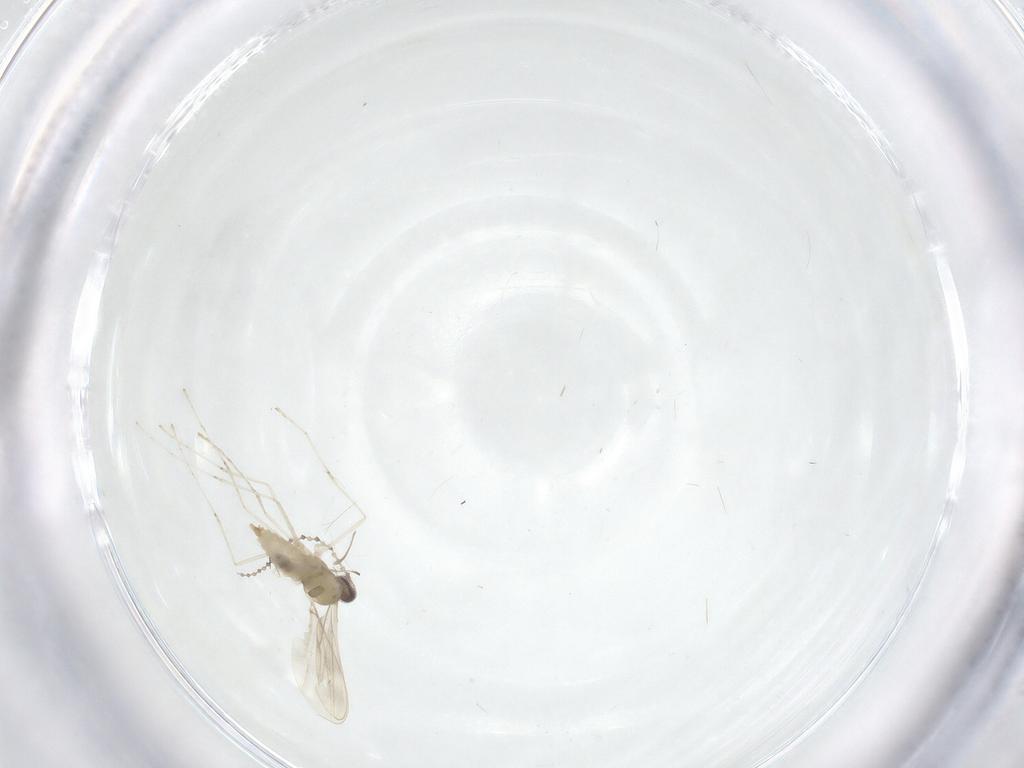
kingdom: Animalia
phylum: Arthropoda
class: Insecta
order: Diptera
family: Cecidomyiidae
